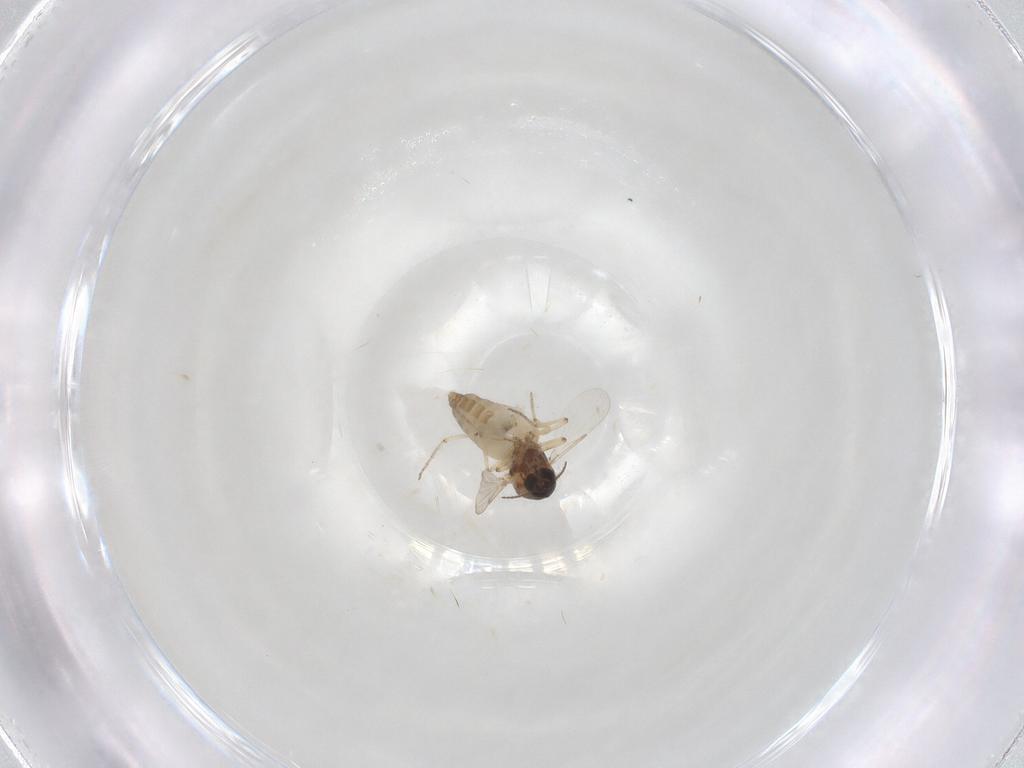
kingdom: Animalia
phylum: Arthropoda
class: Insecta
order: Diptera
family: Ceratopogonidae
